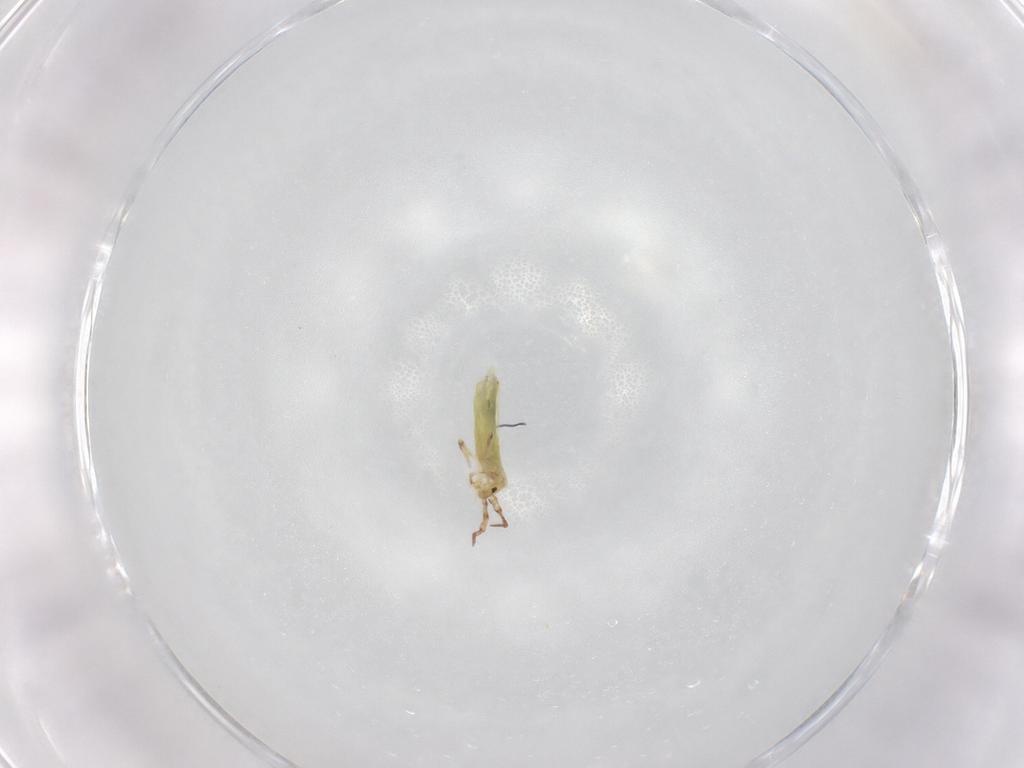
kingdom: Animalia
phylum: Arthropoda
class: Collembola
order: Entomobryomorpha
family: Entomobryidae
